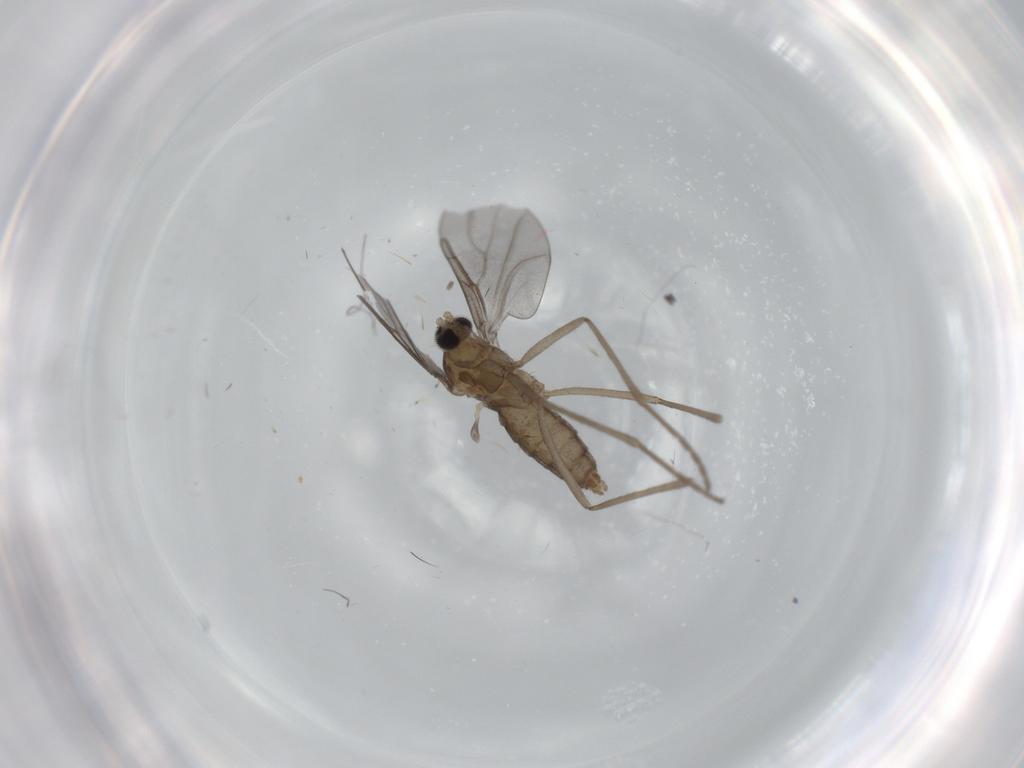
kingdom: Animalia
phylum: Arthropoda
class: Insecta
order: Diptera
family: Cecidomyiidae
